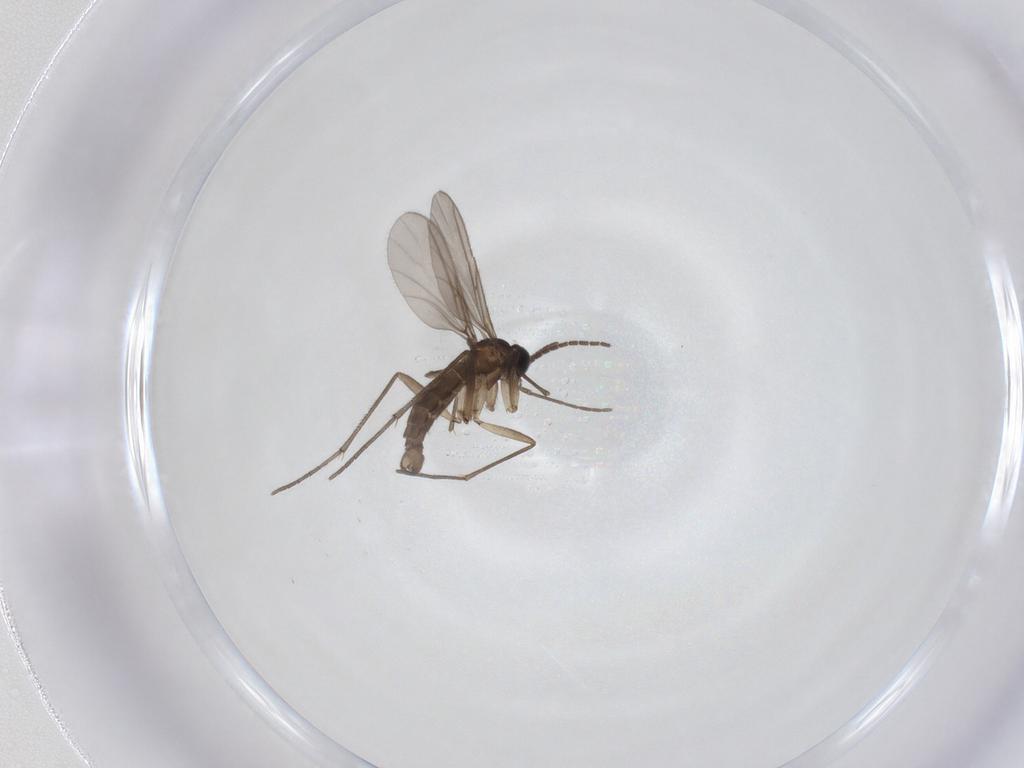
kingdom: Animalia
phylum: Arthropoda
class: Insecta
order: Diptera
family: Sciaridae
